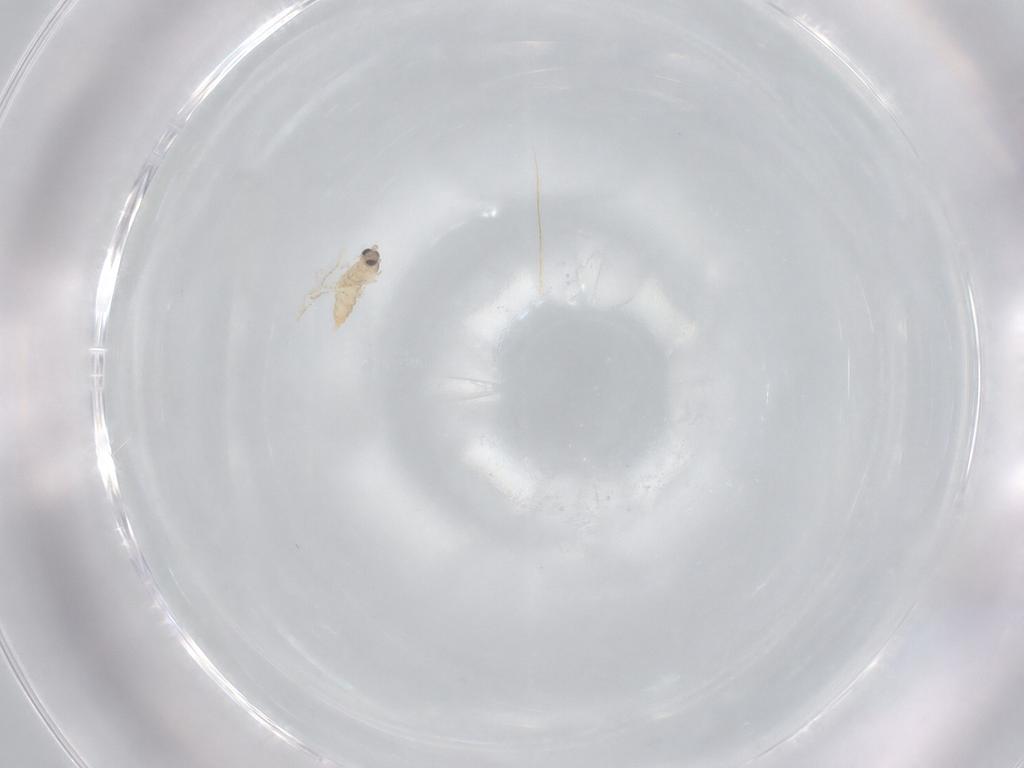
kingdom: Animalia
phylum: Arthropoda
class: Insecta
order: Diptera
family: Cecidomyiidae
